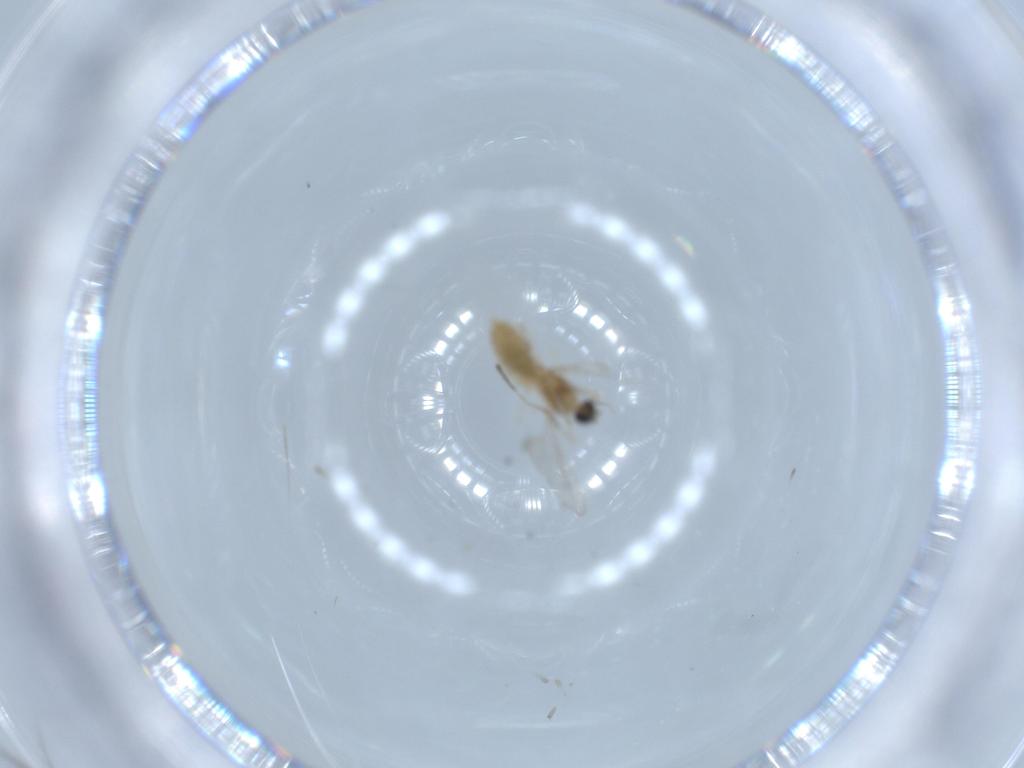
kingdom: Animalia
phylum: Arthropoda
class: Insecta
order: Diptera
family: Cecidomyiidae
